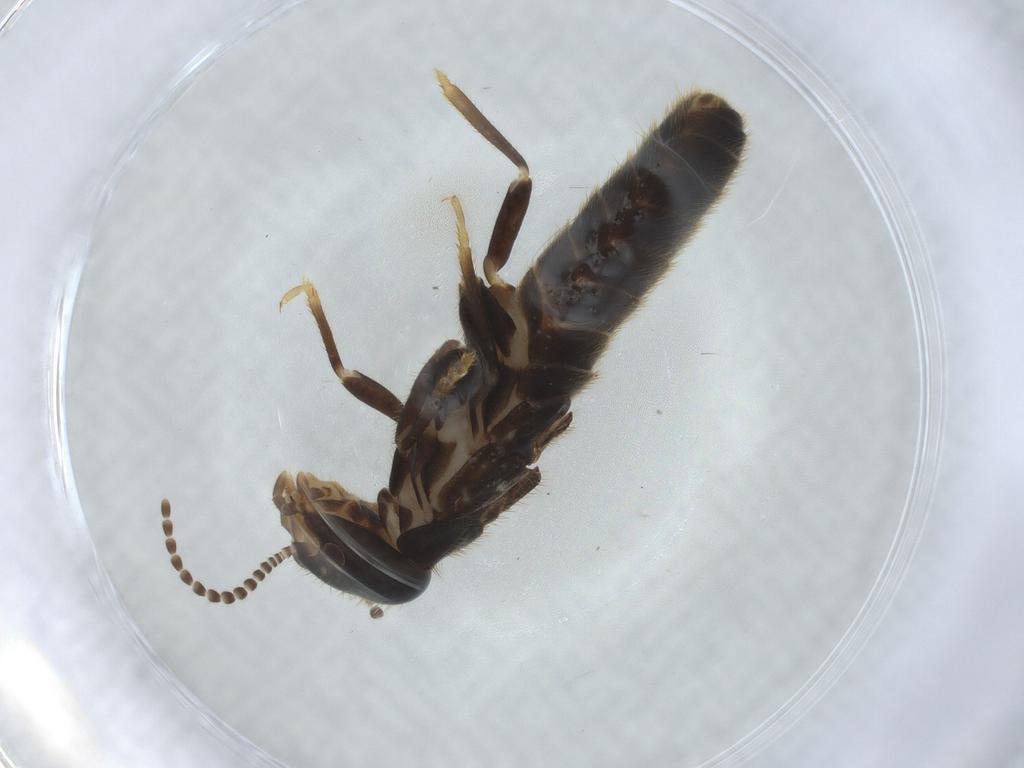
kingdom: Animalia
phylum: Arthropoda
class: Insecta
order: Blattodea
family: Rhinotermitidae
